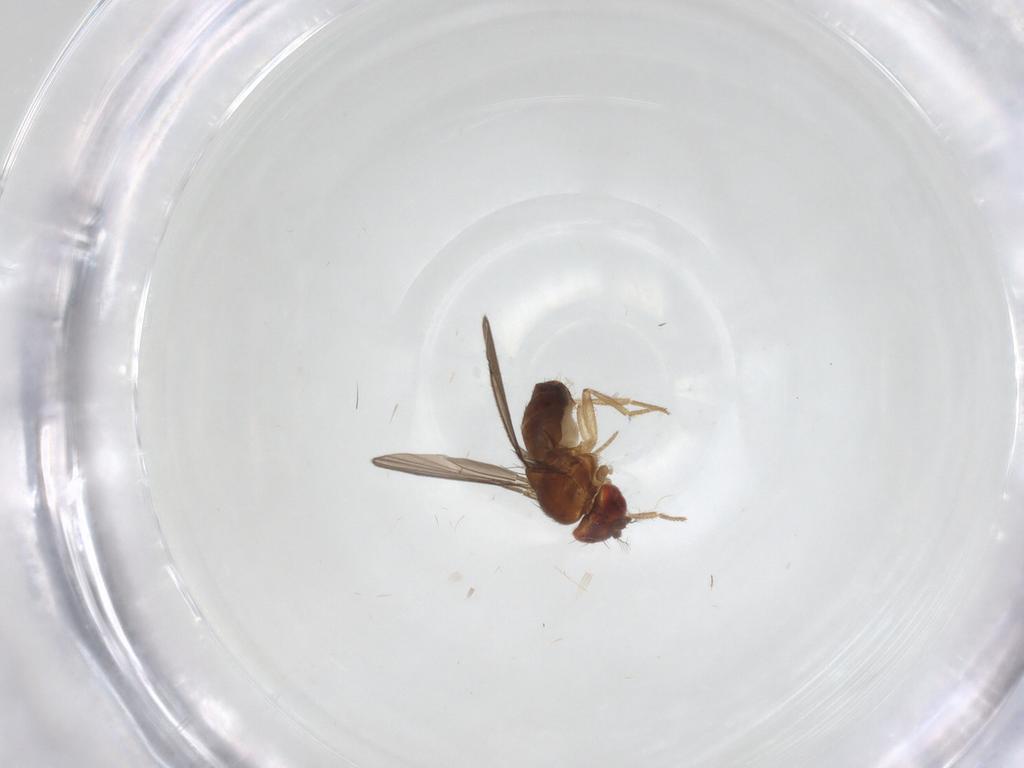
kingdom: Animalia
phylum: Arthropoda
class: Insecta
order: Diptera
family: Drosophilidae
